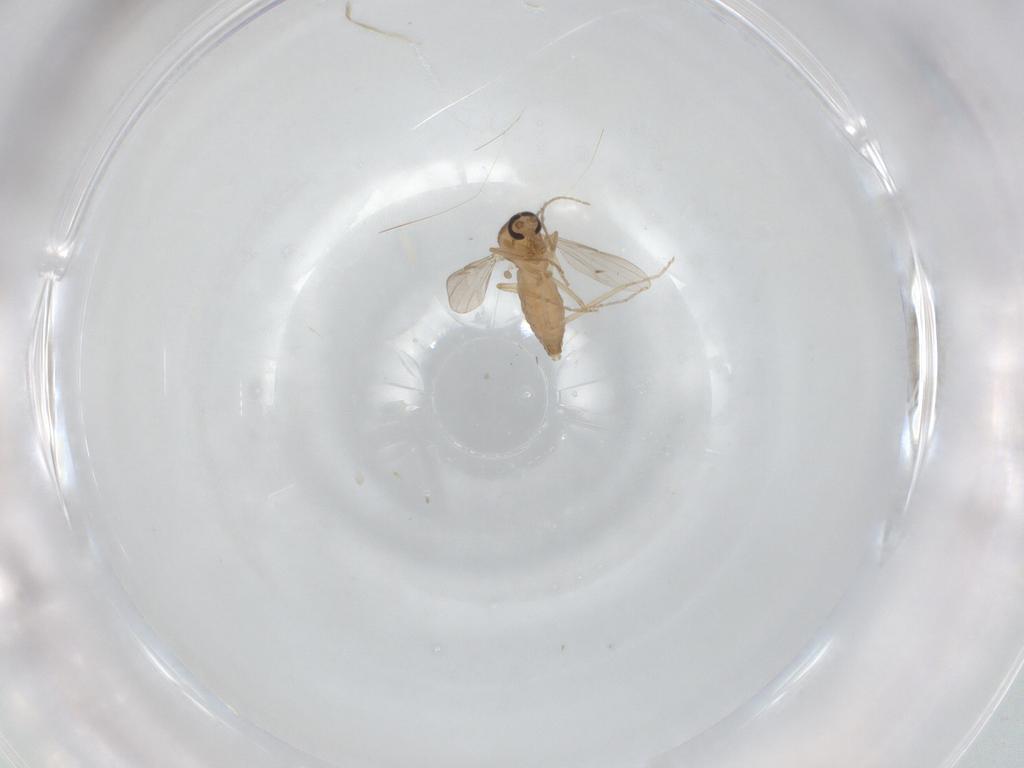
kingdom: Animalia
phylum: Arthropoda
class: Insecta
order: Diptera
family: Ceratopogonidae
